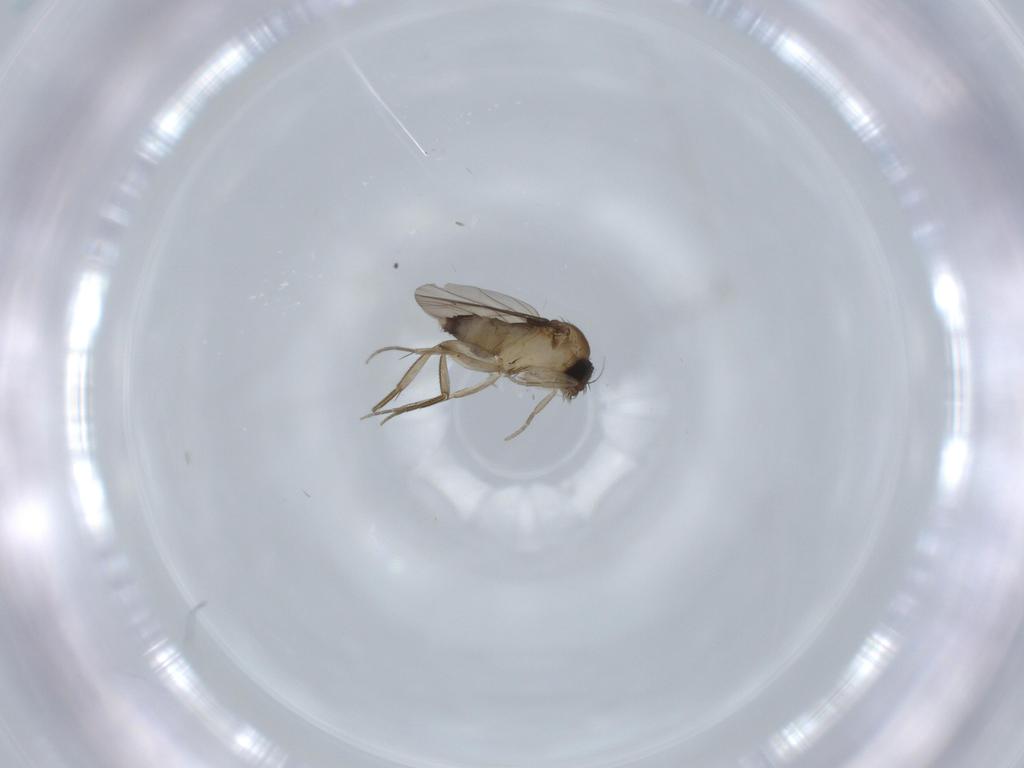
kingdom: Animalia
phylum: Arthropoda
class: Insecta
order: Diptera
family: Phoridae
